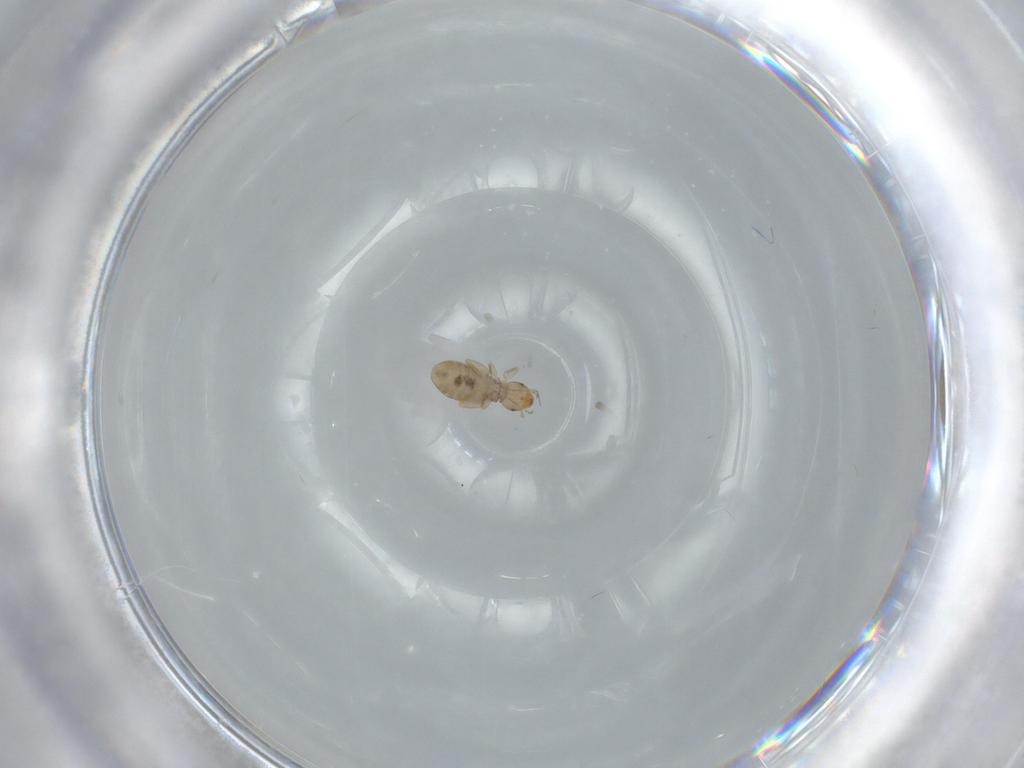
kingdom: Animalia
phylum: Arthropoda
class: Insecta
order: Psocodea
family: Liposcelididae
